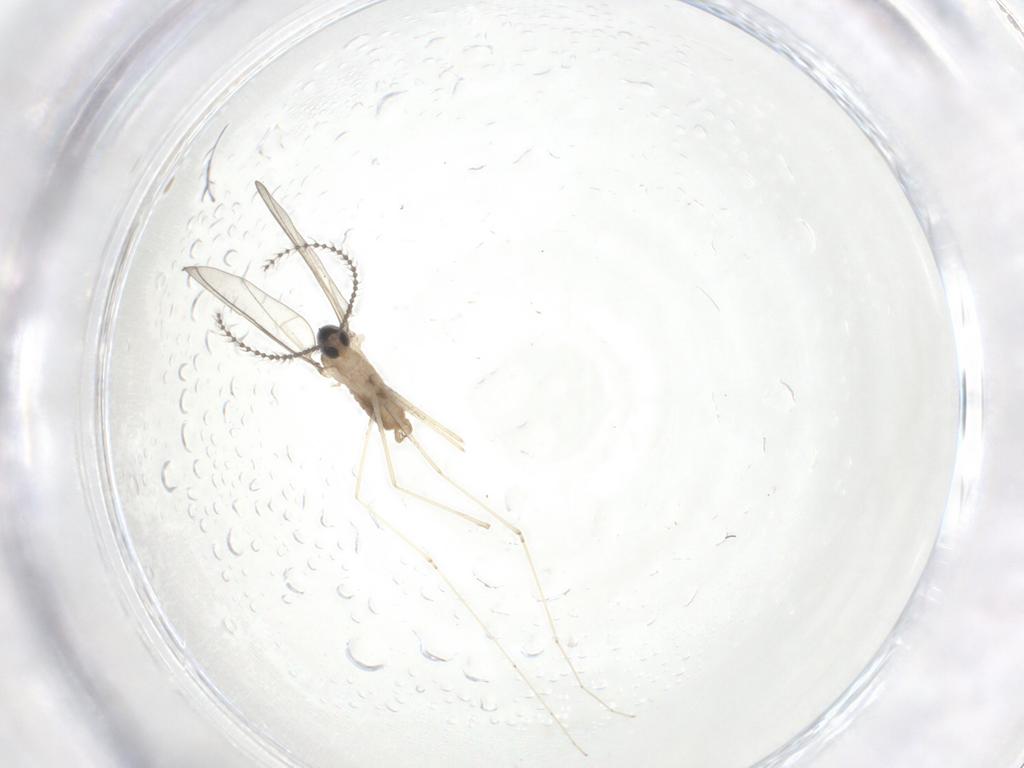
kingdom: Animalia
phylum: Arthropoda
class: Insecta
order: Diptera
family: Cecidomyiidae
